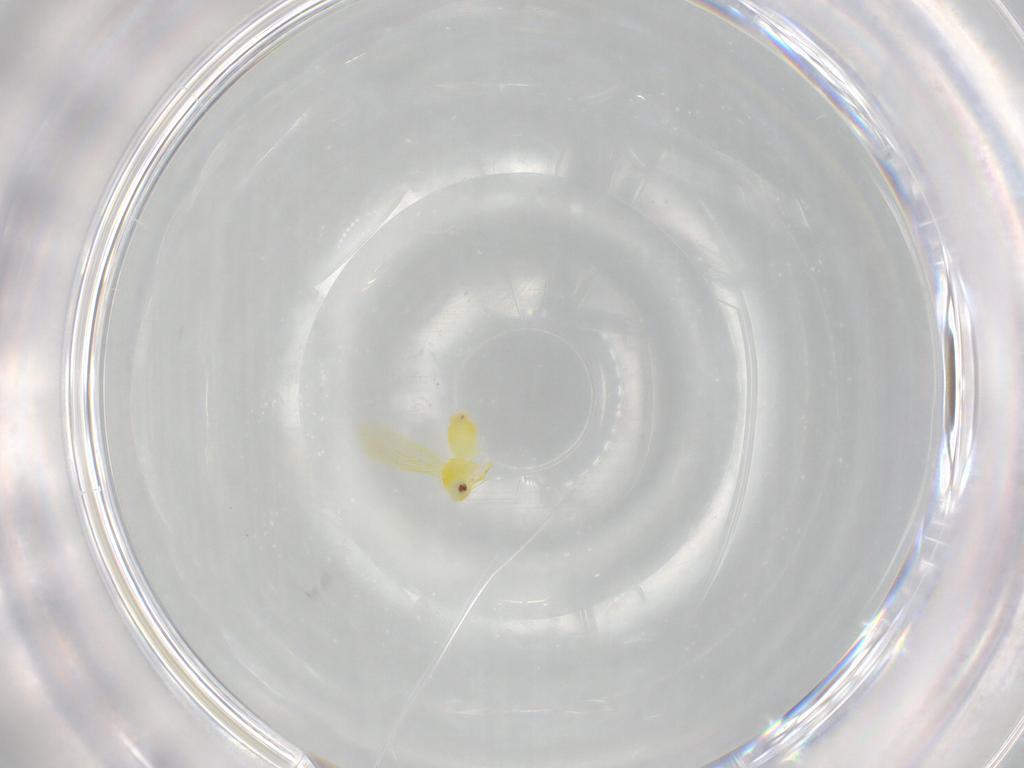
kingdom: Animalia
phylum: Arthropoda
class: Insecta
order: Hemiptera
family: Aleyrodidae
